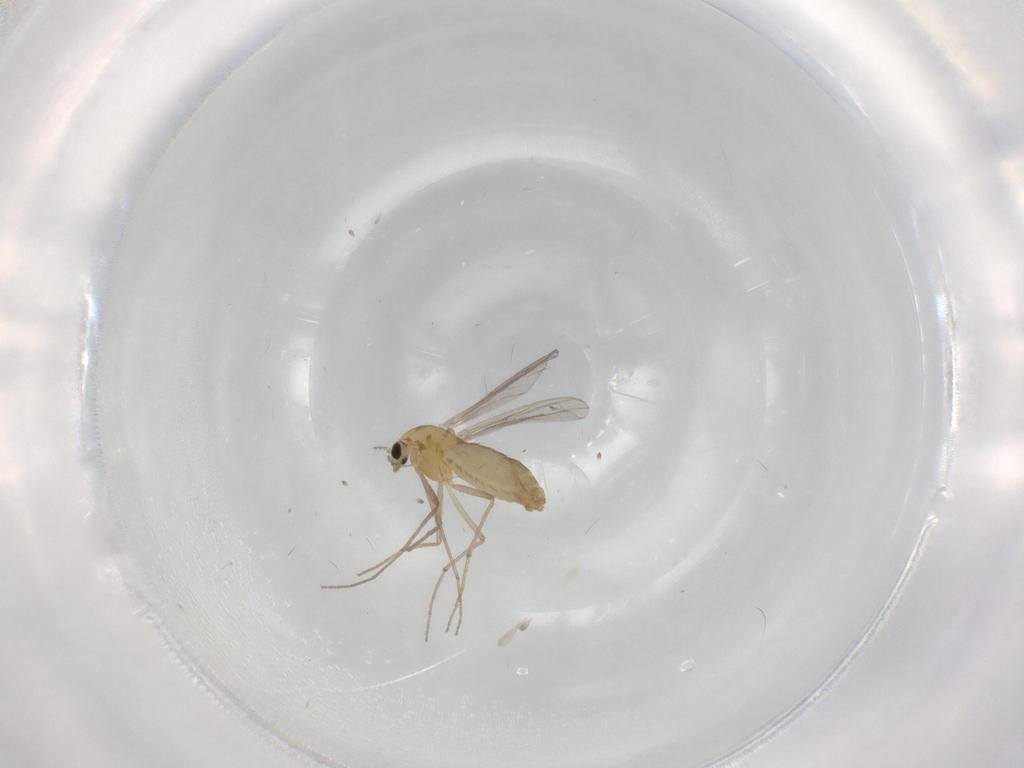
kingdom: Animalia
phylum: Arthropoda
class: Insecta
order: Diptera
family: Chironomidae
